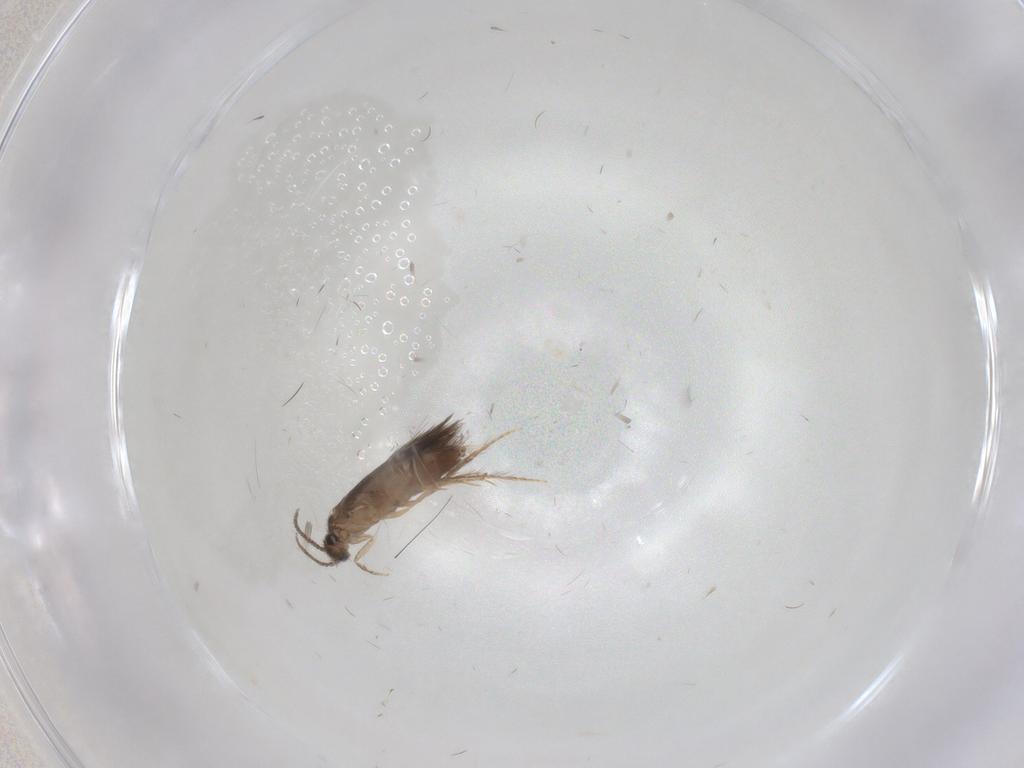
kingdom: Animalia
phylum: Arthropoda
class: Insecta
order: Trichoptera
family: Hydroptilidae
